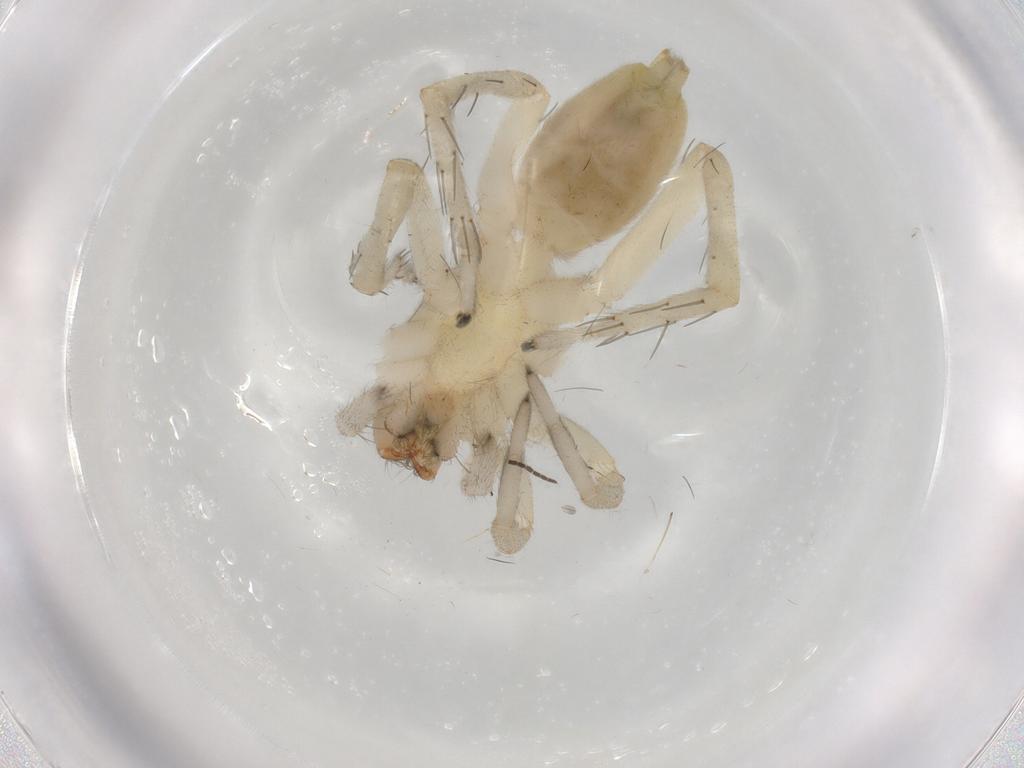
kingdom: Animalia
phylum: Arthropoda
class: Arachnida
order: Araneae
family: Clubionidae
